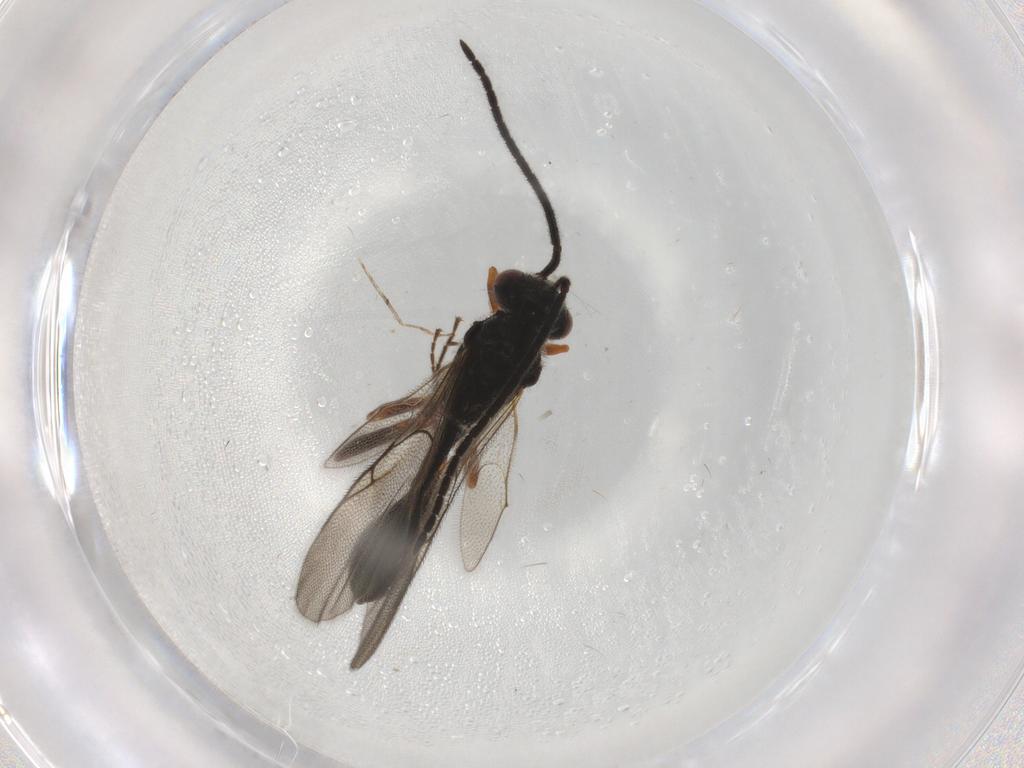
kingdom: Animalia
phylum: Arthropoda
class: Insecta
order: Hymenoptera
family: Diapriidae
